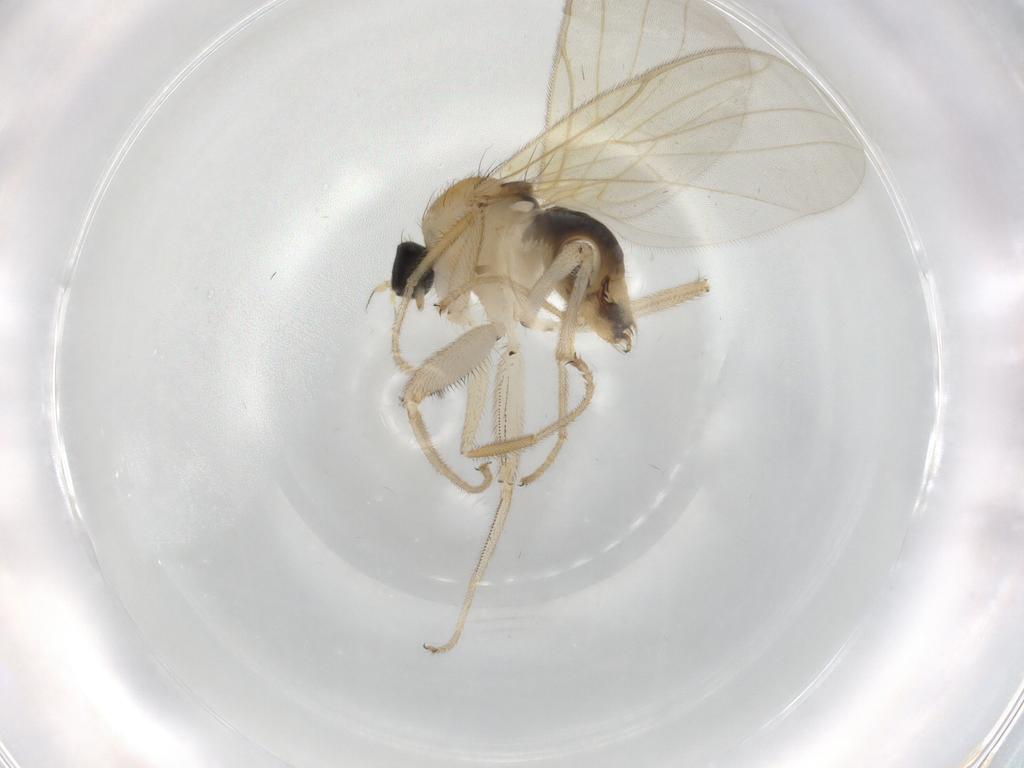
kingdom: Animalia
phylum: Arthropoda
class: Insecta
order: Diptera
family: Hybotidae
